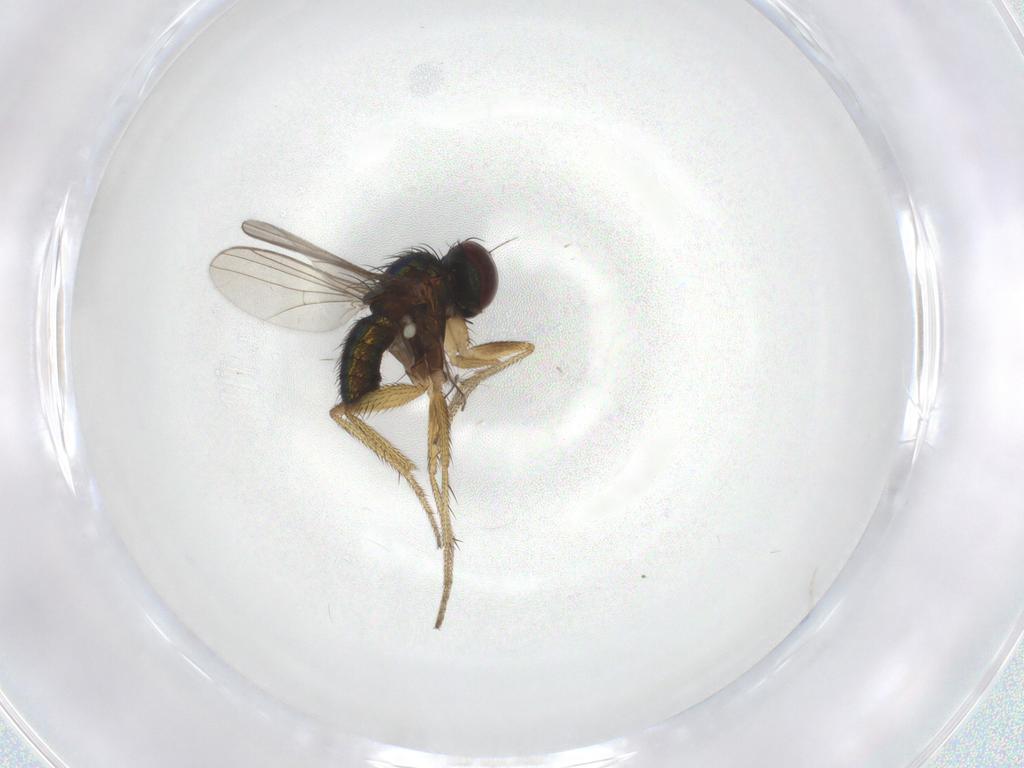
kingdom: Animalia
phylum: Arthropoda
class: Insecta
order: Diptera
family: Dolichopodidae
